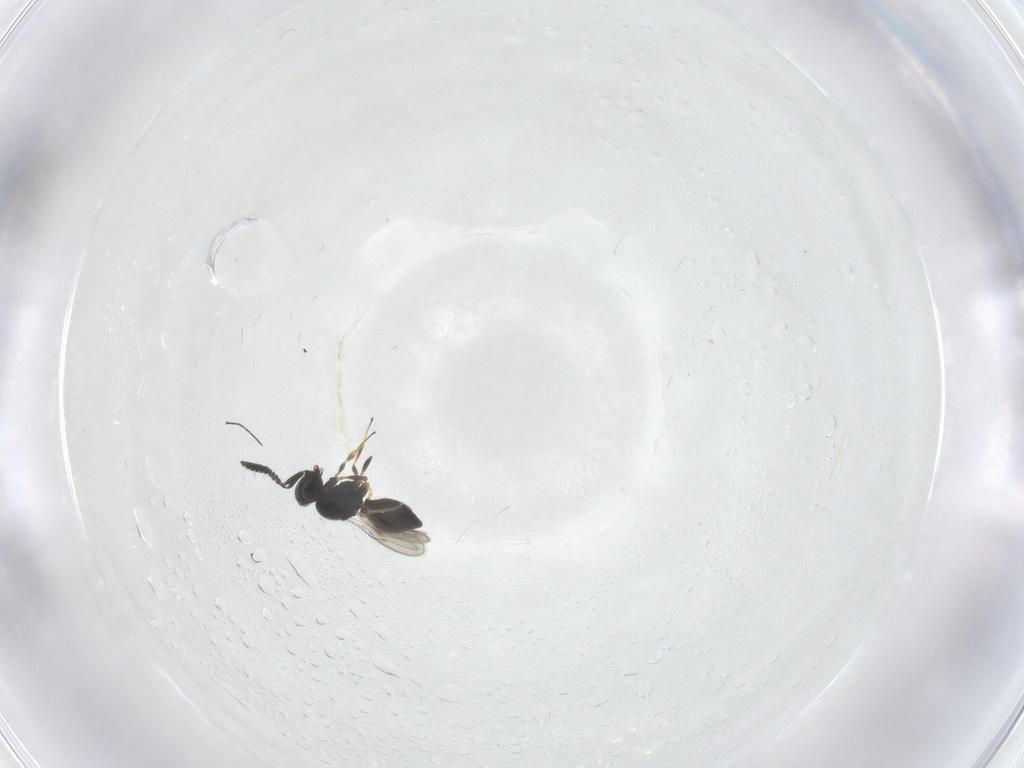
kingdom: Animalia
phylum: Arthropoda
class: Insecta
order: Hymenoptera
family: Scelionidae
